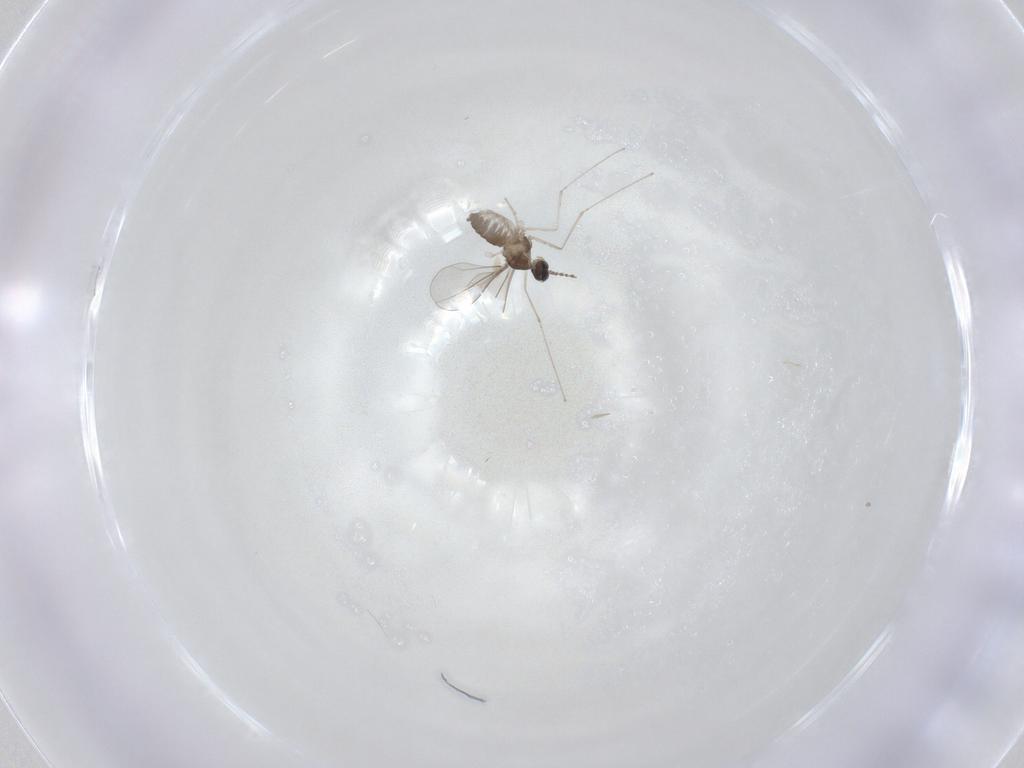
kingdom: Animalia
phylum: Arthropoda
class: Insecta
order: Diptera
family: Cecidomyiidae
